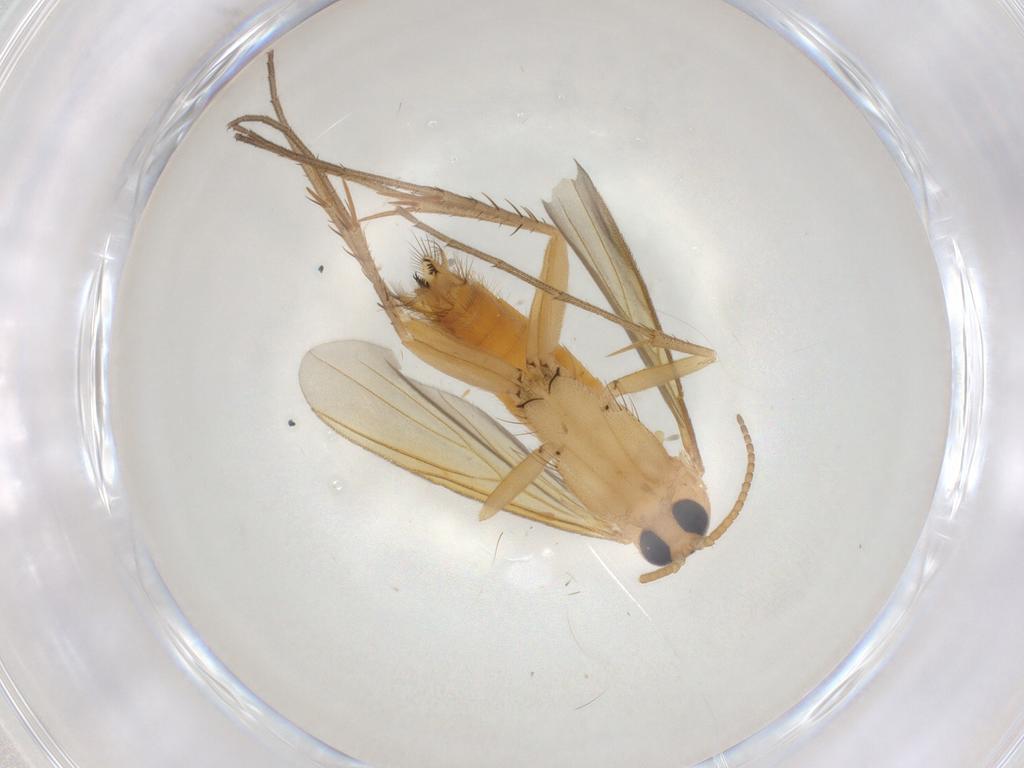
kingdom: Animalia
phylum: Arthropoda
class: Insecta
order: Diptera
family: Mycetophilidae
